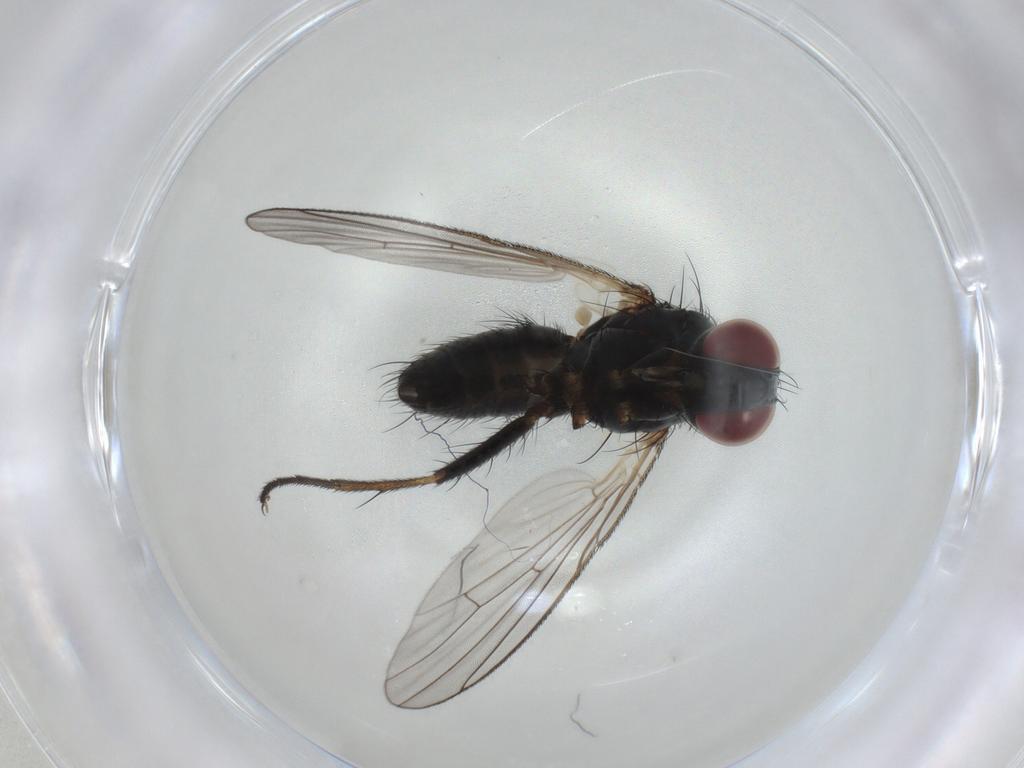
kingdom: Animalia
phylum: Arthropoda
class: Insecta
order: Diptera
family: Muscidae
